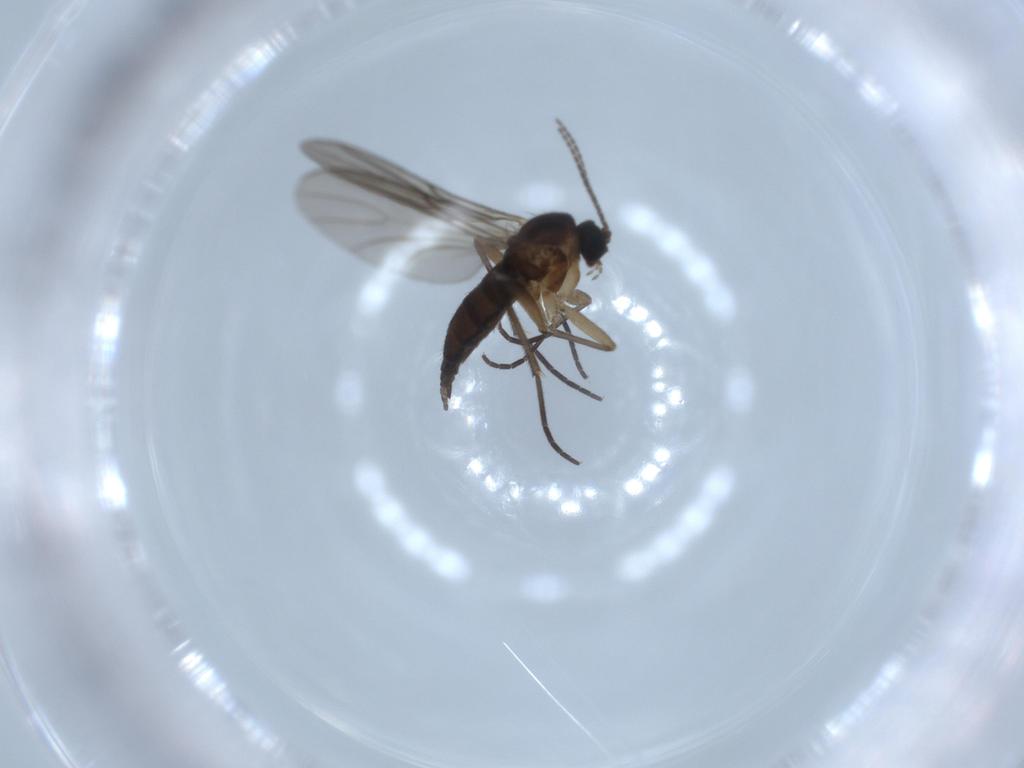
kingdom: Animalia
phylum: Arthropoda
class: Insecta
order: Diptera
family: Sciaridae
